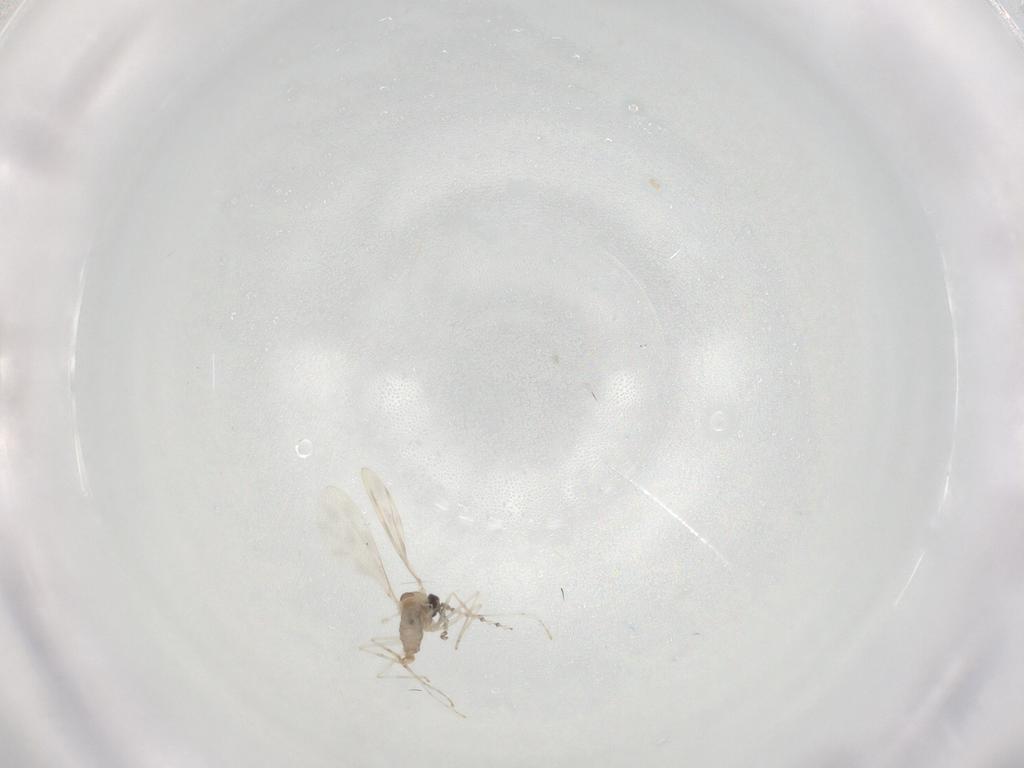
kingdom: Animalia
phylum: Arthropoda
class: Insecta
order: Diptera
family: Cecidomyiidae
